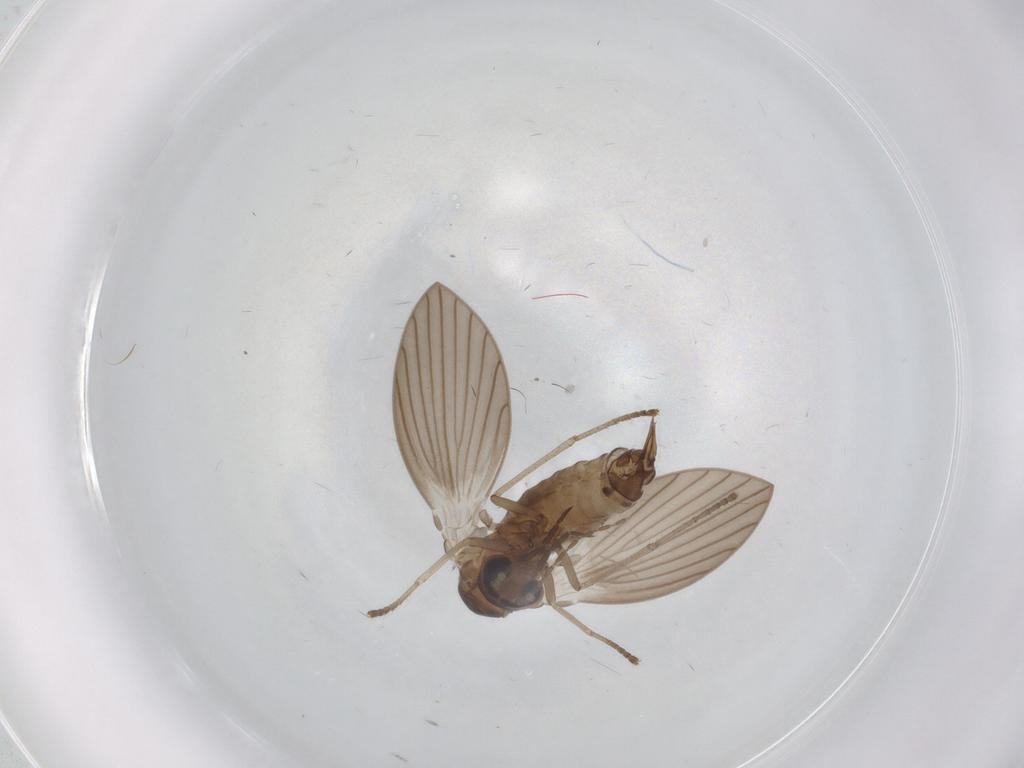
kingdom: Animalia
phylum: Arthropoda
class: Insecta
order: Diptera
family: Psychodidae
